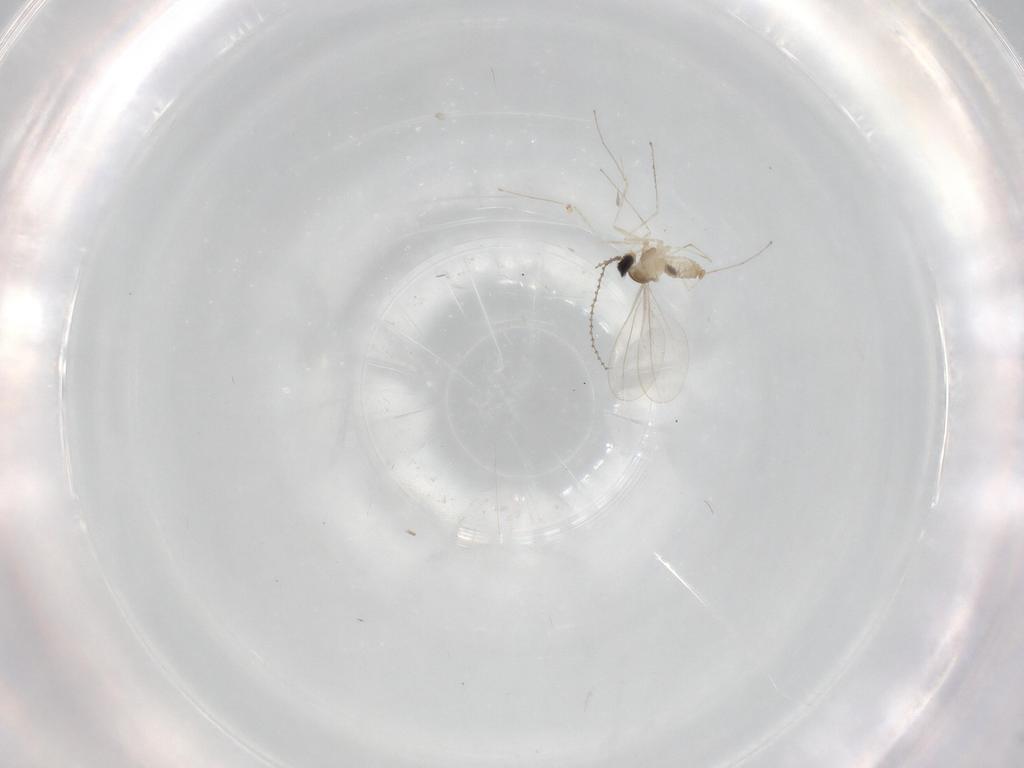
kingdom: Animalia
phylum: Arthropoda
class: Insecta
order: Diptera
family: Cecidomyiidae
